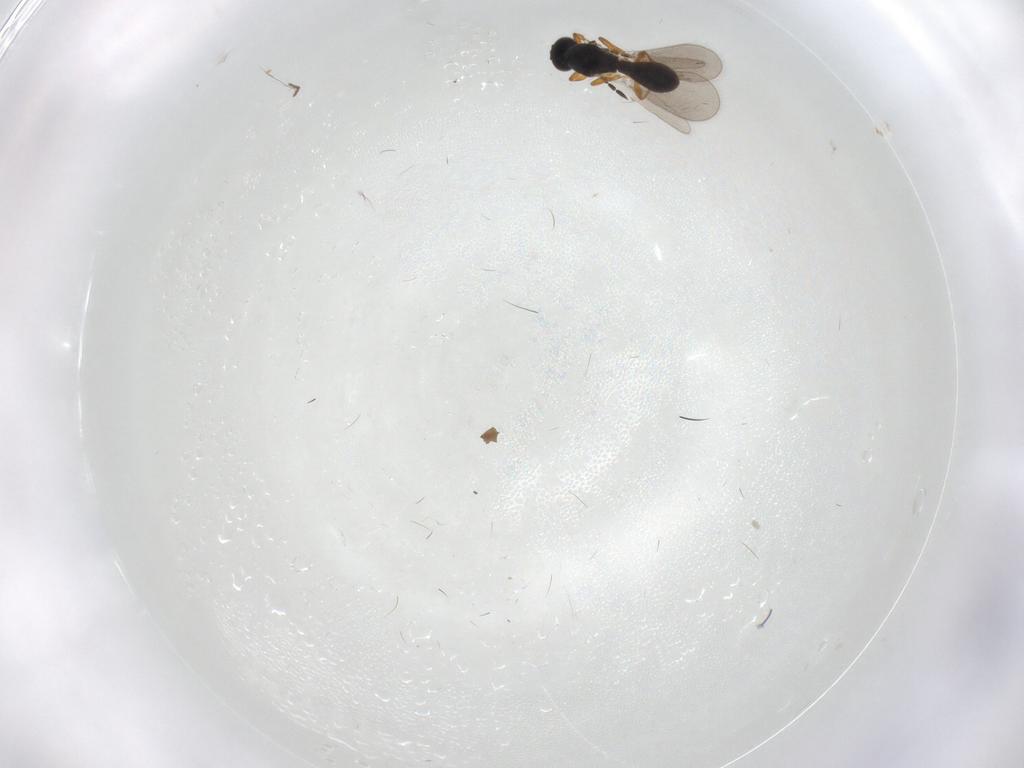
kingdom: Animalia
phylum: Arthropoda
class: Insecta
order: Hymenoptera
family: Platygastridae
